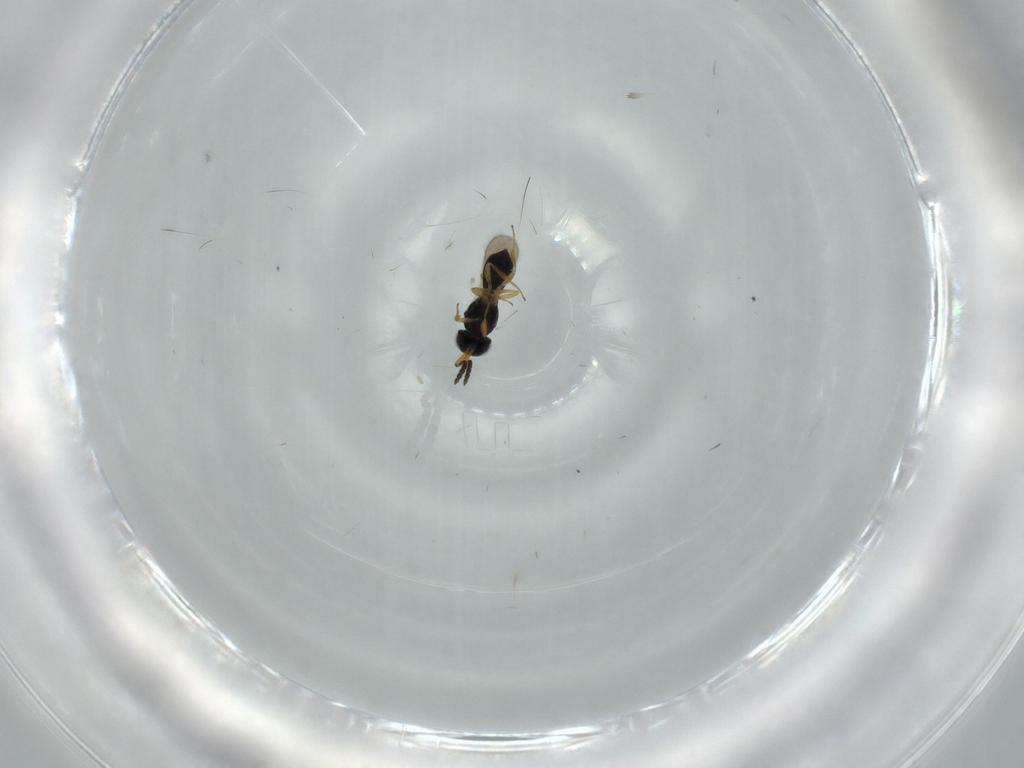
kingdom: Animalia
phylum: Arthropoda
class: Insecta
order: Hymenoptera
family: Scelionidae
